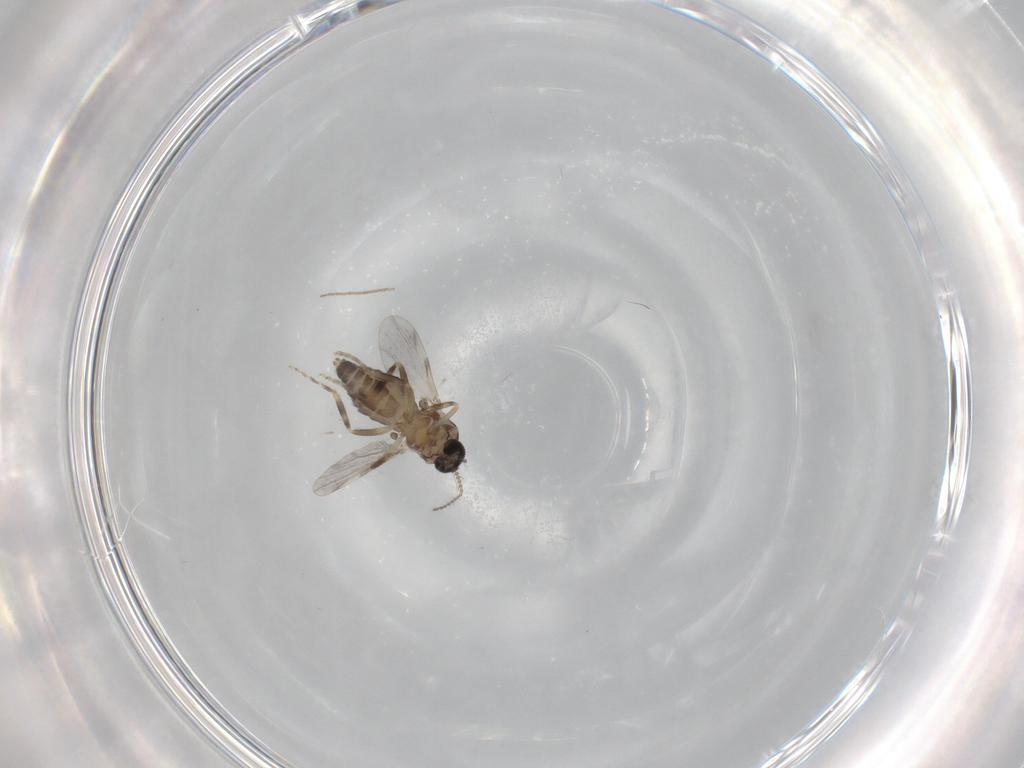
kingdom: Animalia
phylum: Arthropoda
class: Insecta
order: Diptera
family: Ceratopogonidae
